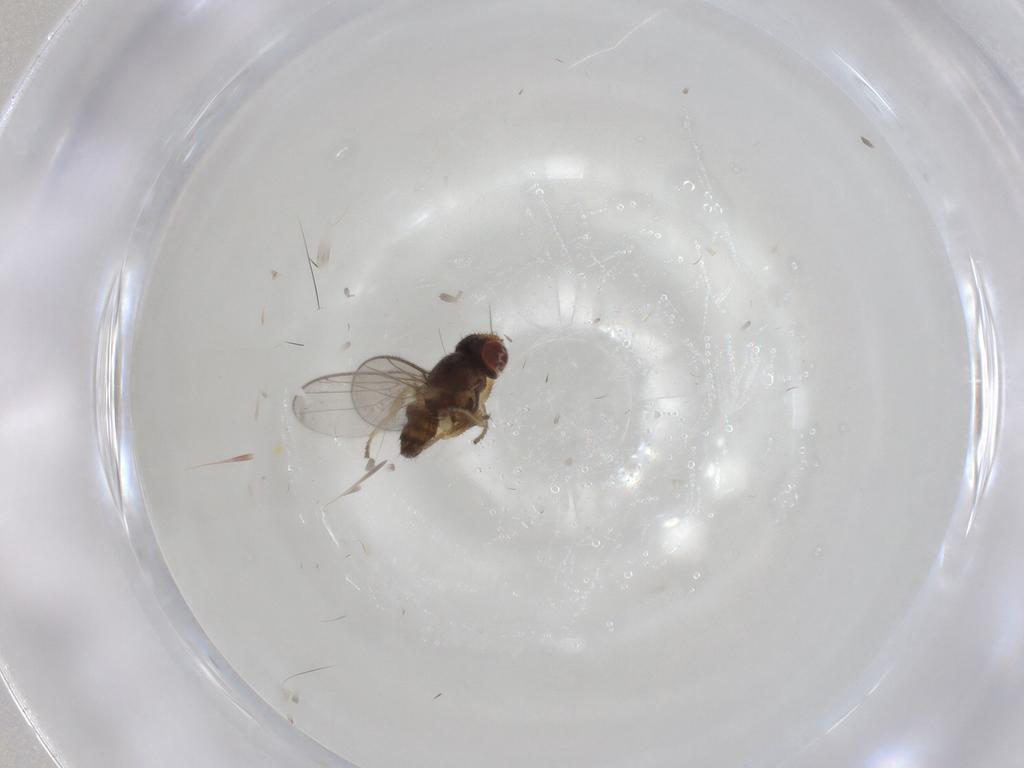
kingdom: Animalia
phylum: Arthropoda
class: Insecta
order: Diptera
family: Chloropidae
